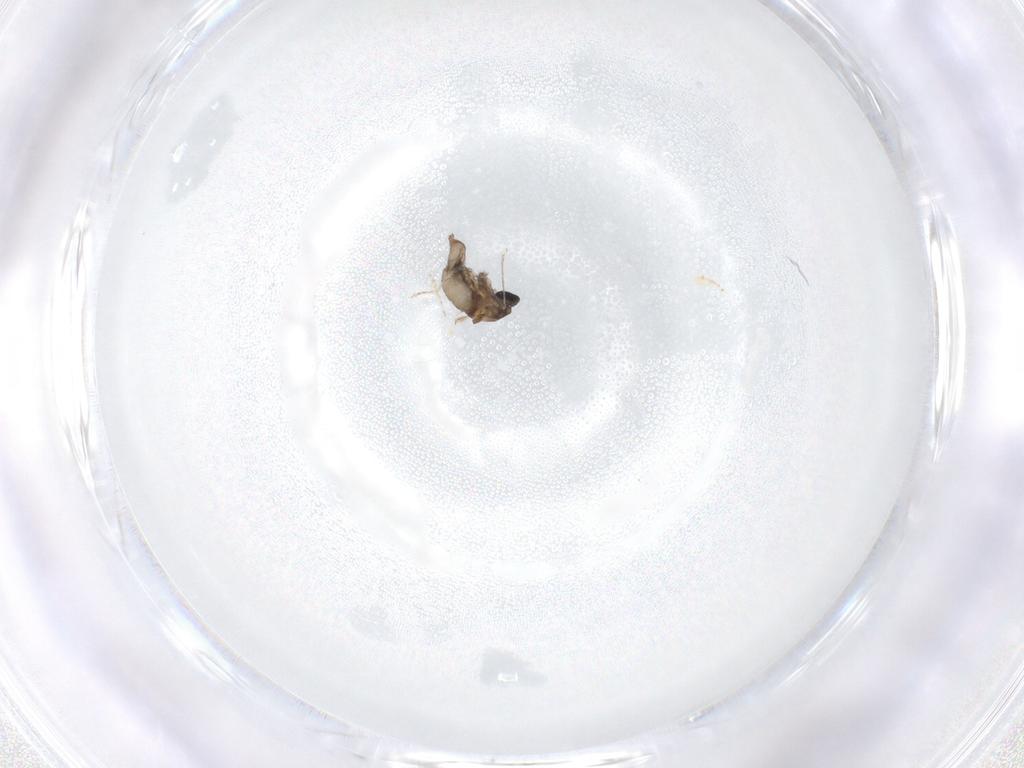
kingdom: Animalia
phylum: Arthropoda
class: Insecta
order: Diptera
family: Cecidomyiidae
